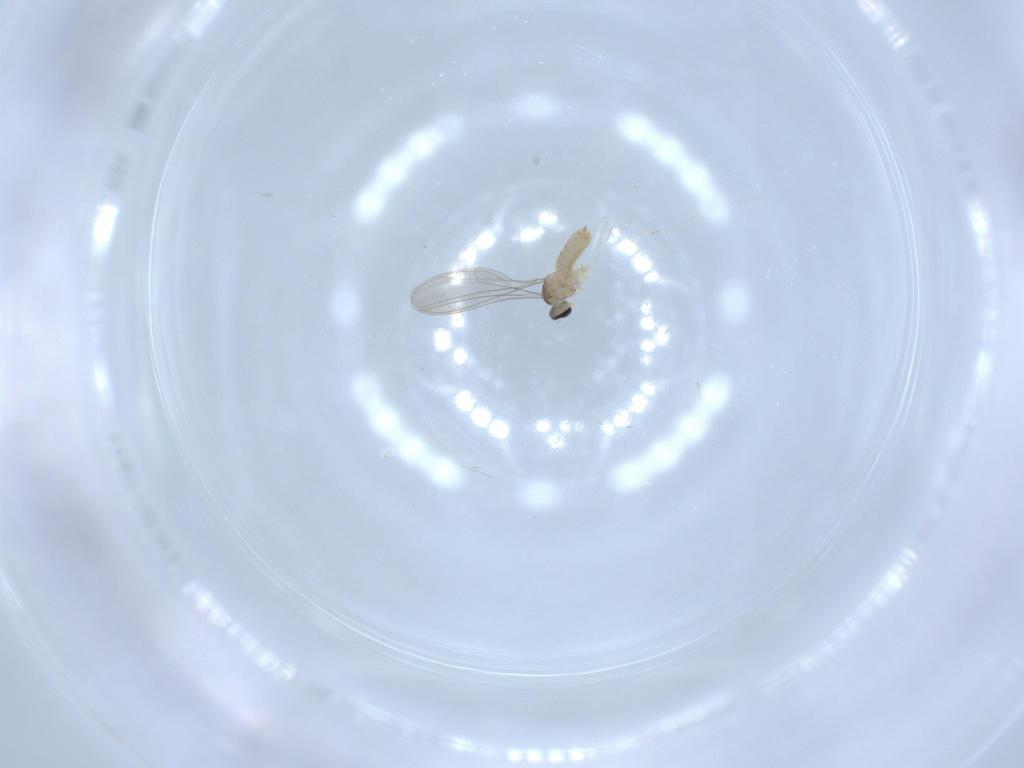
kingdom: Animalia
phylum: Arthropoda
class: Insecta
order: Diptera
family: Cecidomyiidae
